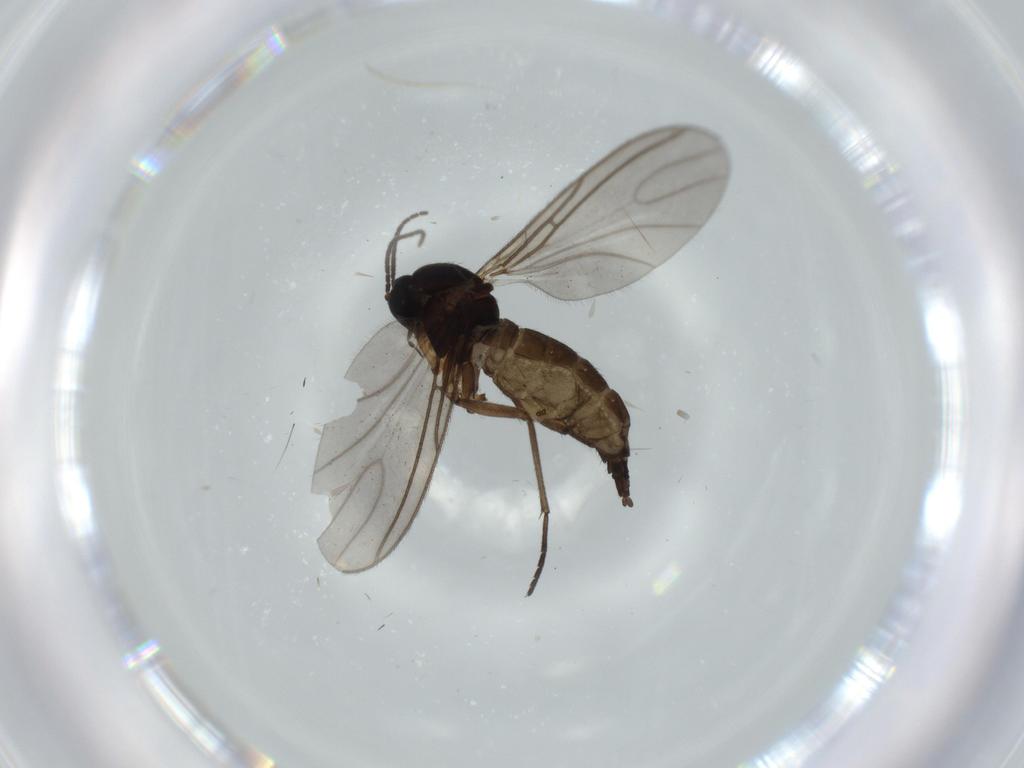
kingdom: Animalia
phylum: Arthropoda
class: Insecta
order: Diptera
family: Sciaridae
